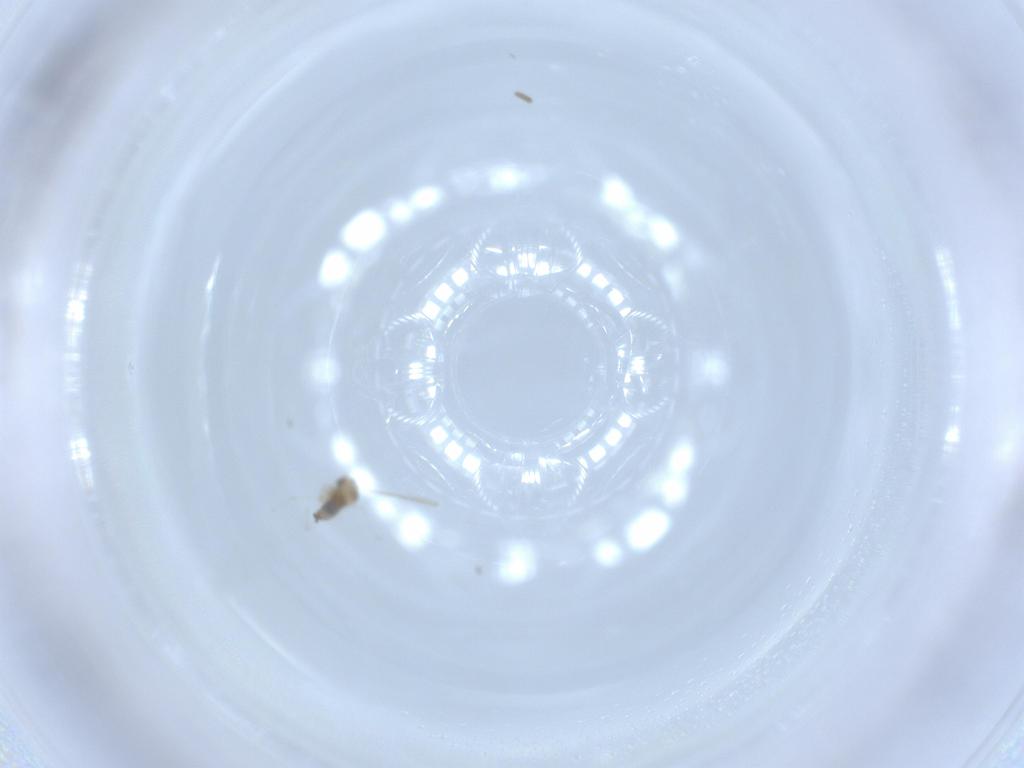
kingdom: Animalia
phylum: Arthropoda
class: Insecta
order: Diptera
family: Cecidomyiidae
